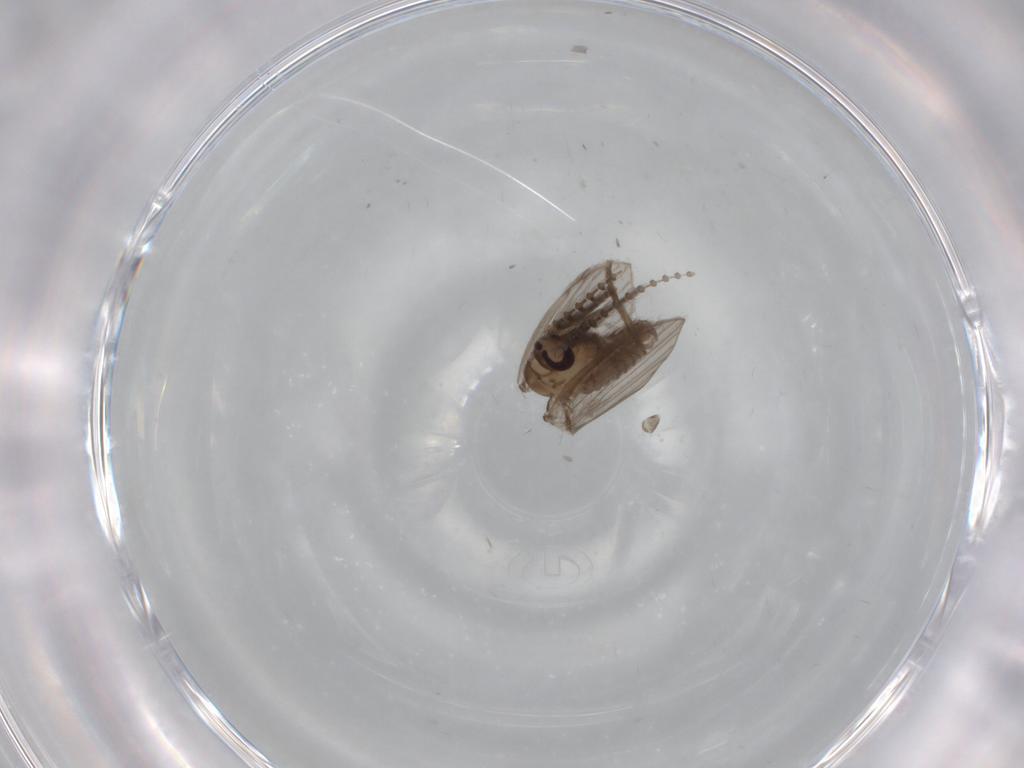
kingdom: Animalia
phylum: Arthropoda
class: Insecta
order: Diptera
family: Psychodidae
